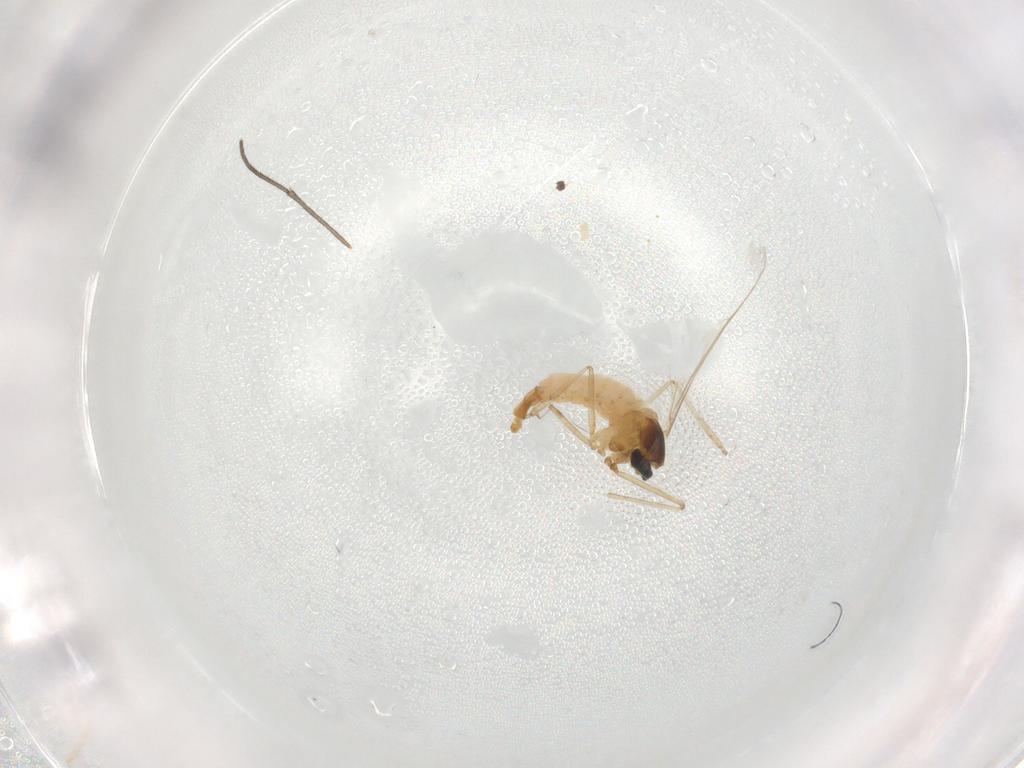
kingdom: Animalia
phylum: Arthropoda
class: Insecta
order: Diptera
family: Cecidomyiidae
